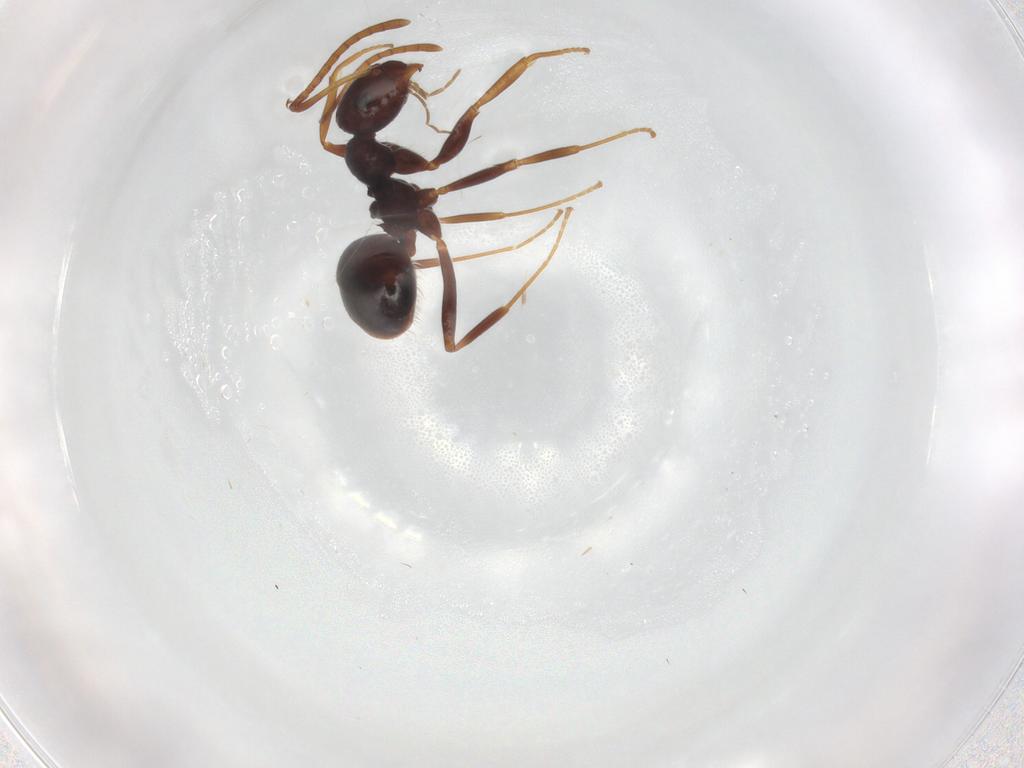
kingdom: Animalia
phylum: Arthropoda
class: Insecta
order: Hymenoptera
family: Formicidae
